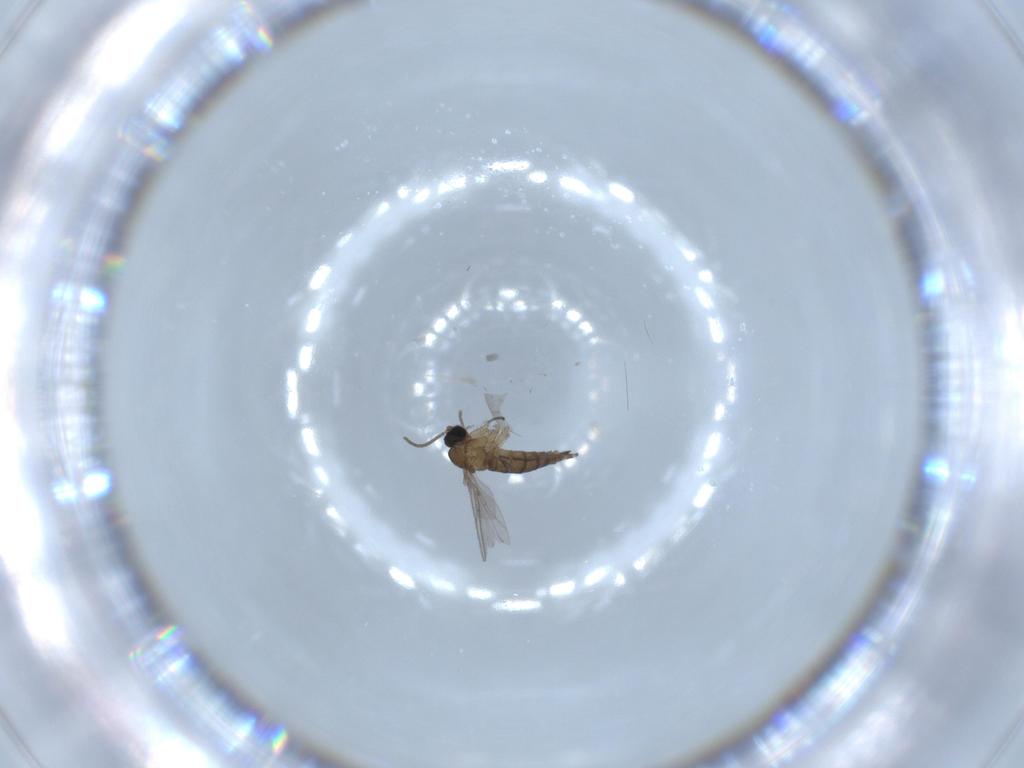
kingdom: Animalia
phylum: Arthropoda
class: Insecta
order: Diptera
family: Sciaridae
